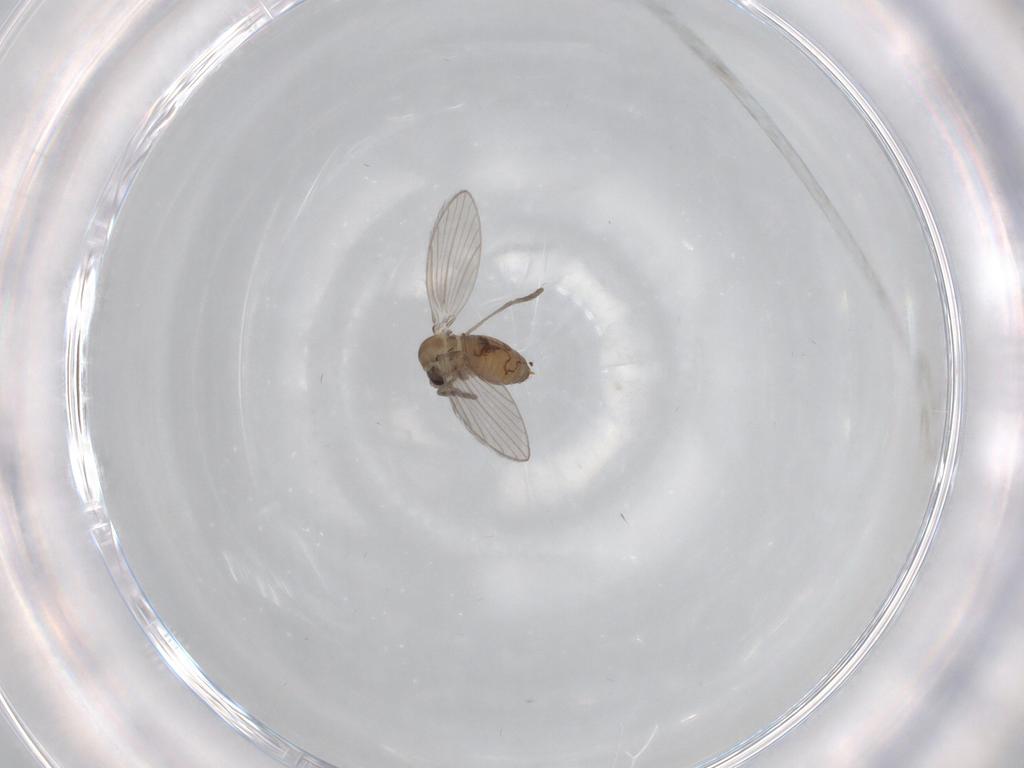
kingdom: Animalia
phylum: Arthropoda
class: Insecta
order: Diptera
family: Psychodidae
